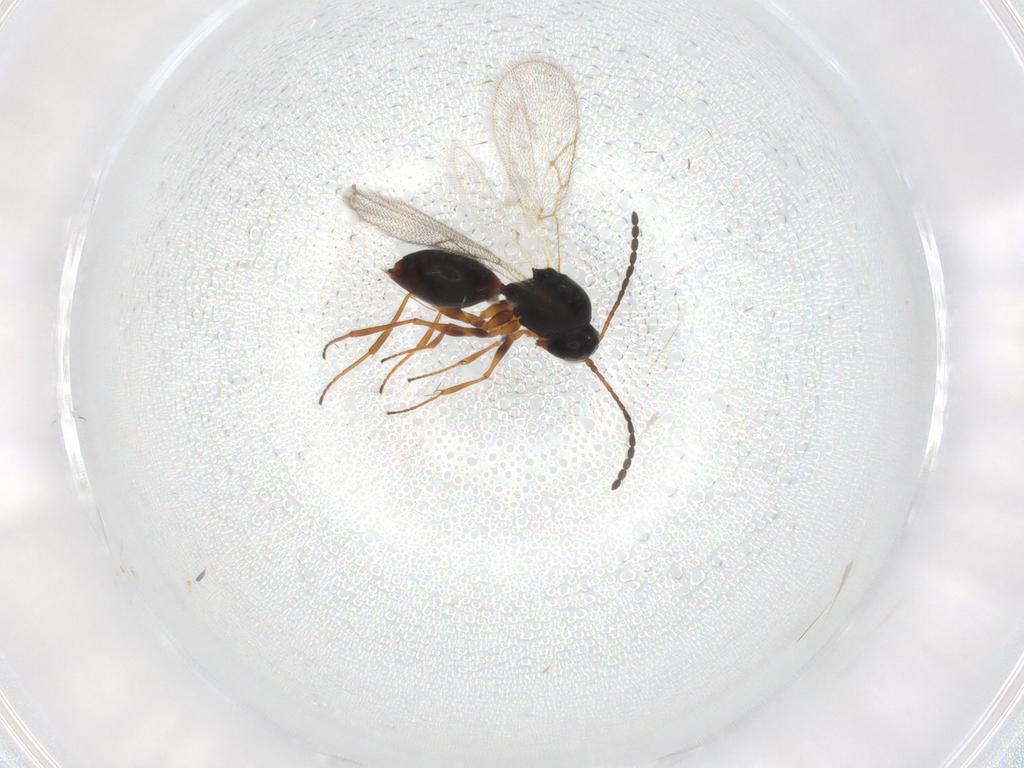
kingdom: Animalia
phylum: Arthropoda
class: Insecta
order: Hymenoptera
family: Figitidae
